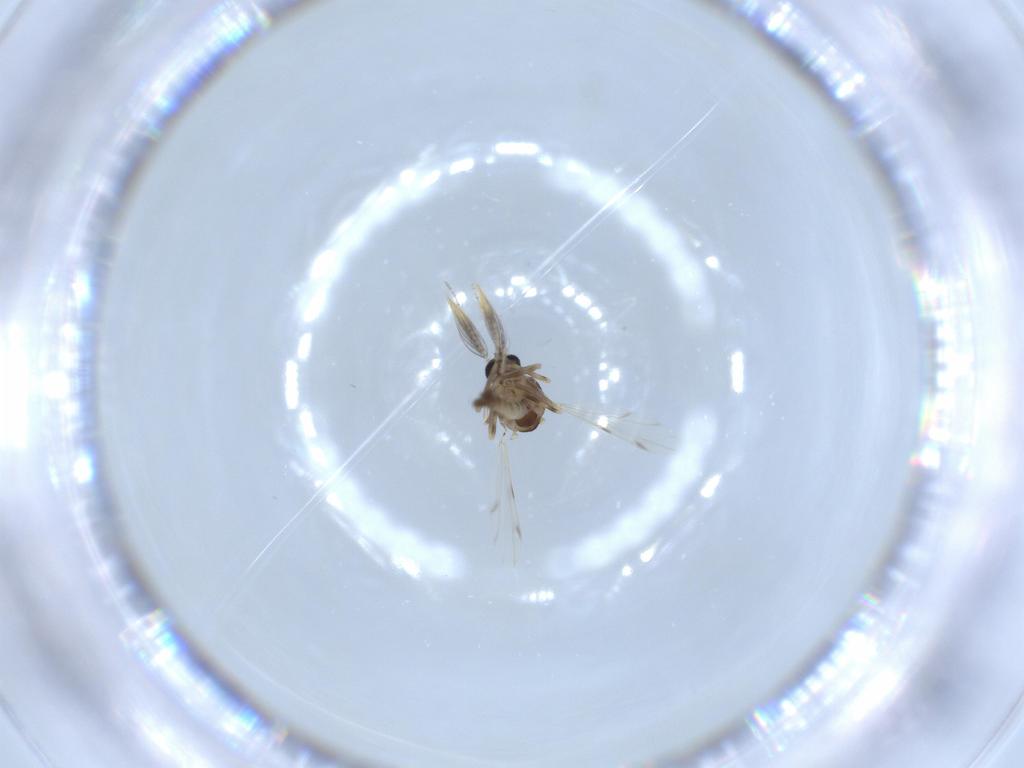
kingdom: Animalia
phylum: Arthropoda
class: Insecta
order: Diptera
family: Ceratopogonidae
